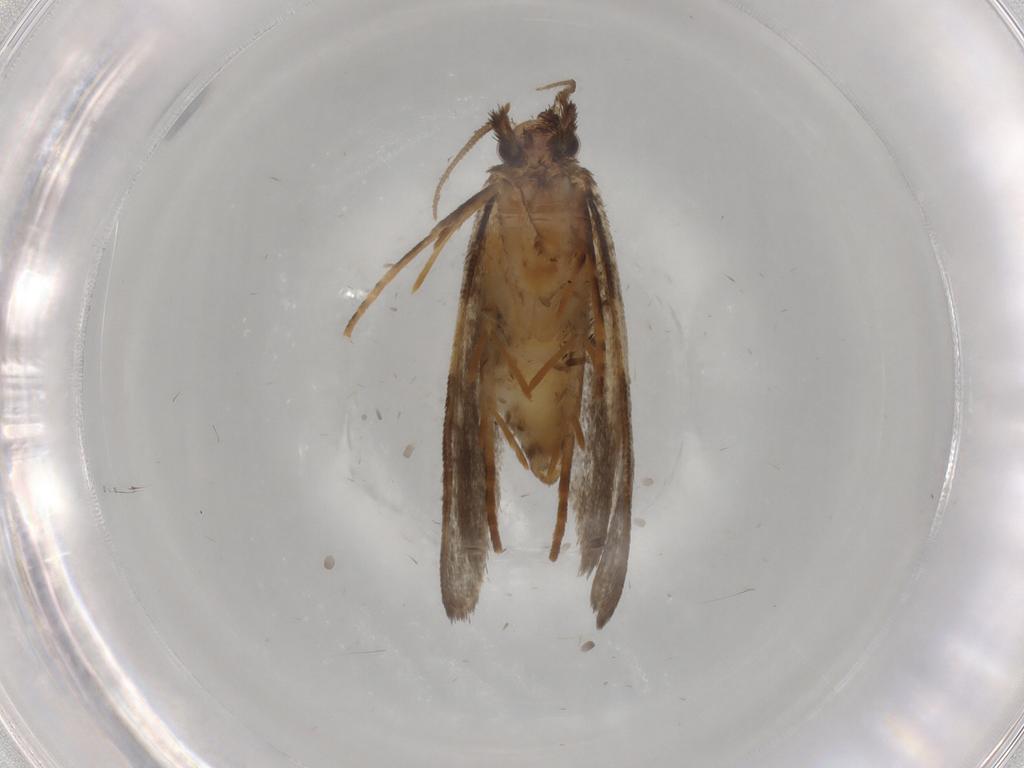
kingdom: Animalia
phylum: Arthropoda
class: Insecta
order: Lepidoptera
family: Psychidae
